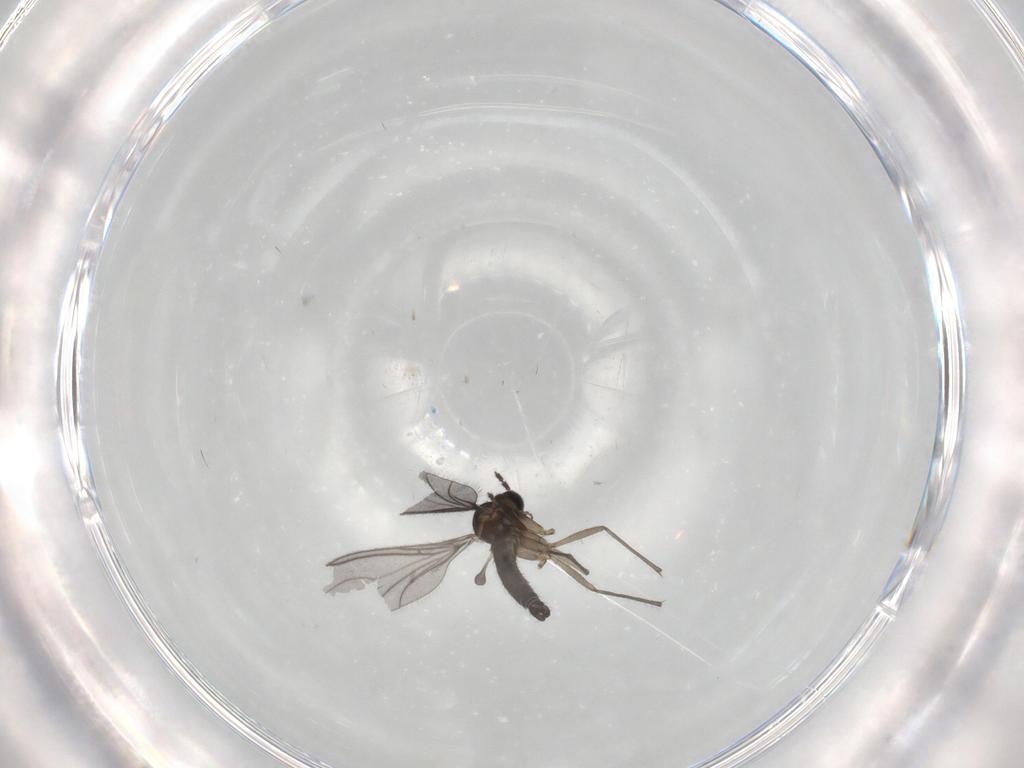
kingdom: Animalia
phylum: Arthropoda
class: Insecta
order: Diptera
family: Sciaridae
